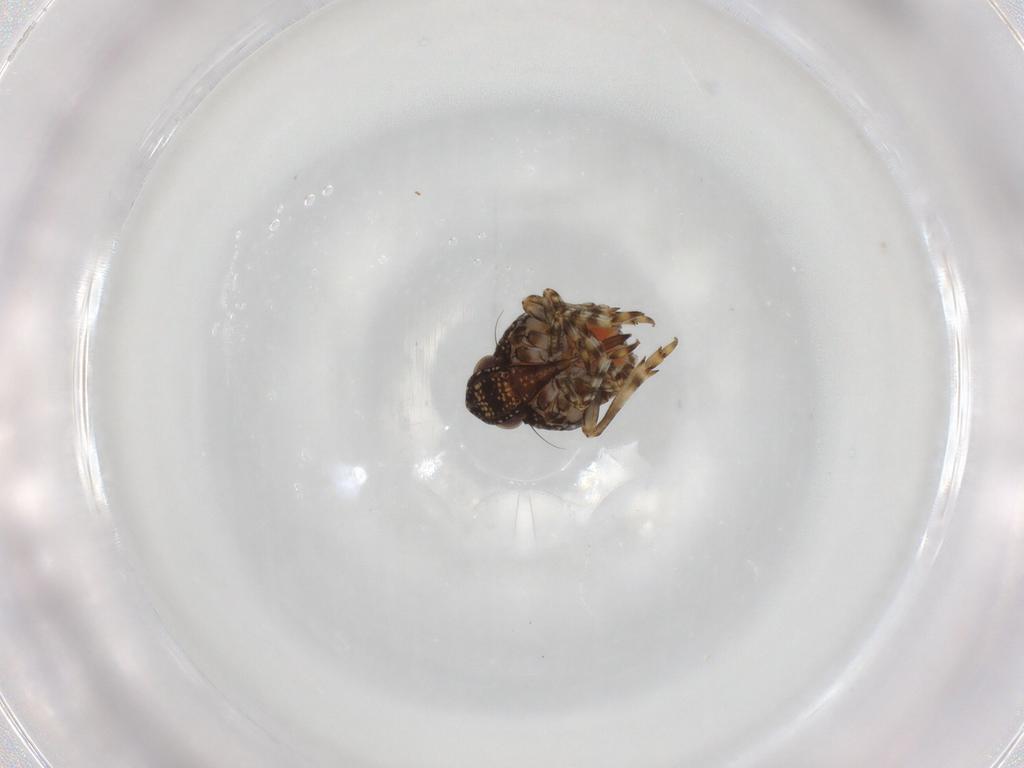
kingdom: Animalia
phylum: Arthropoda
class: Insecta
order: Hemiptera
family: Nogodinidae
